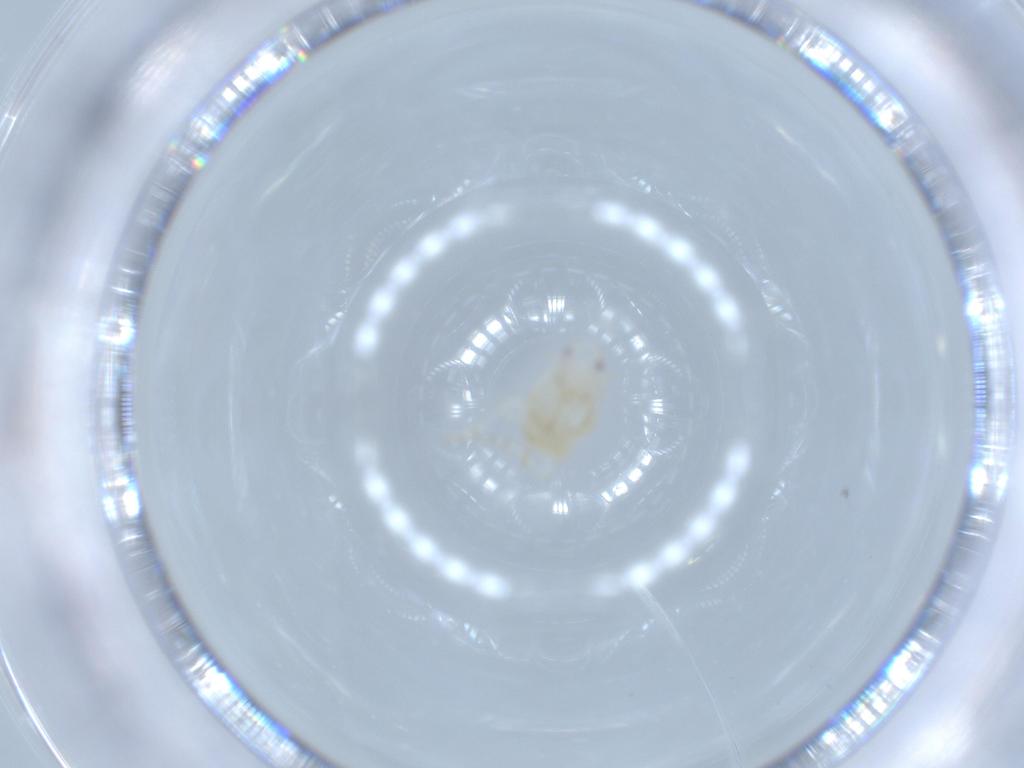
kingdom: Animalia
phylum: Arthropoda
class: Insecta
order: Hemiptera
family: Flatidae
